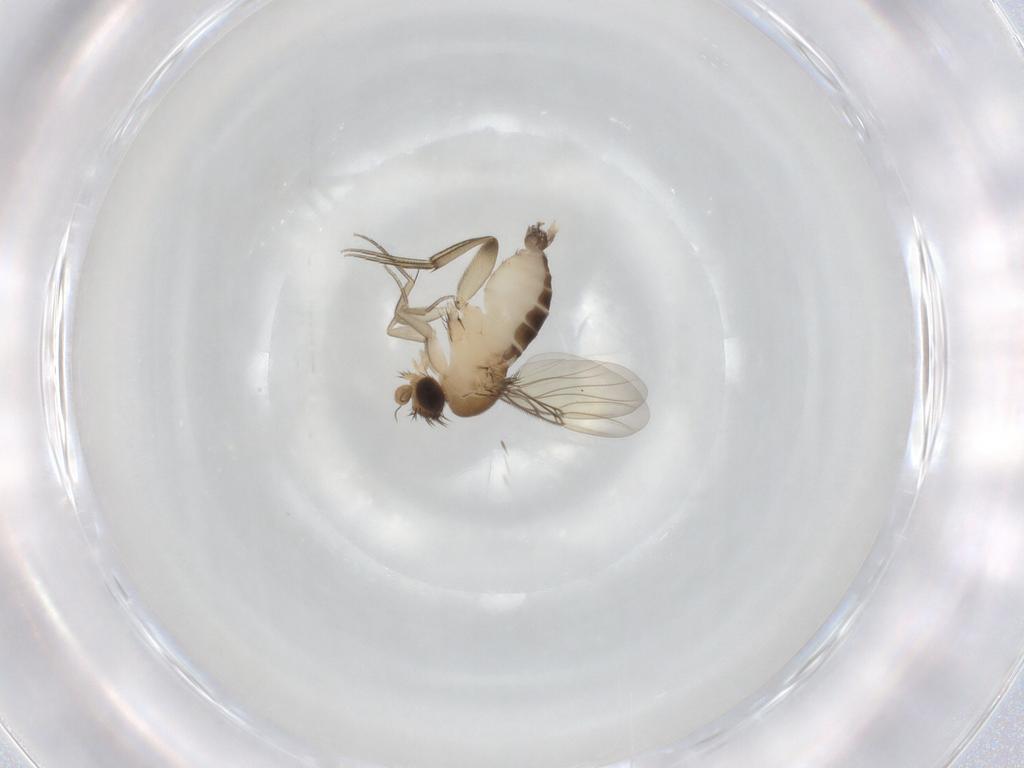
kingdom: Animalia
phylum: Arthropoda
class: Insecta
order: Diptera
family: Phoridae
